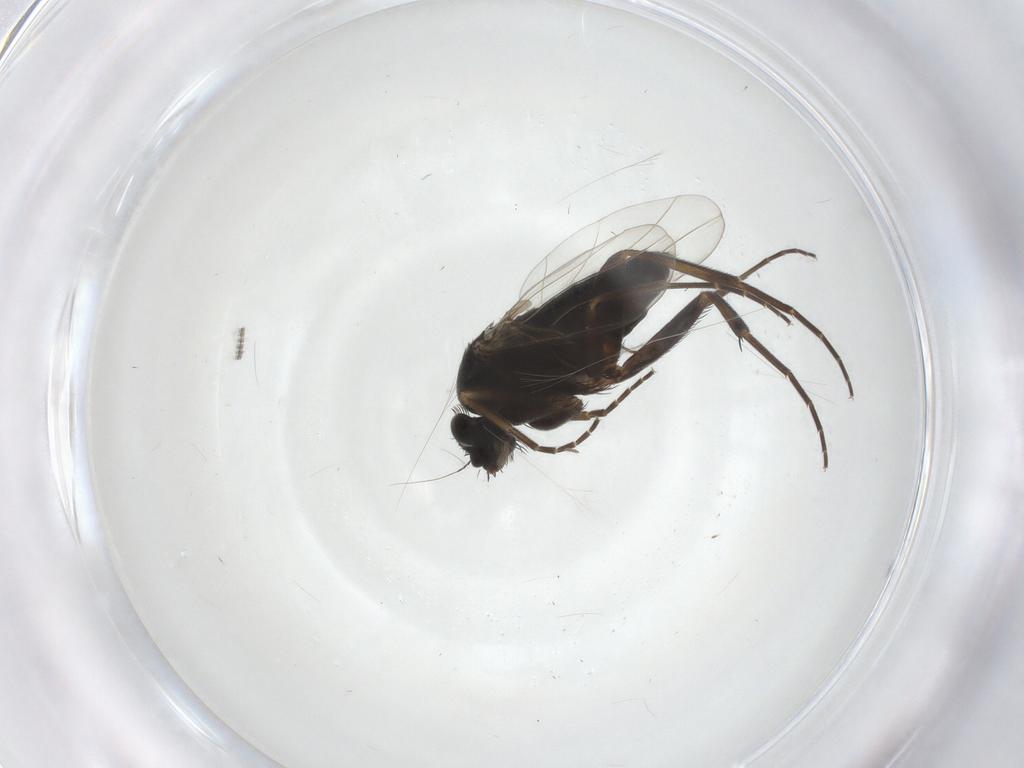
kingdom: Animalia
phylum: Arthropoda
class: Insecta
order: Diptera
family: Phoridae
